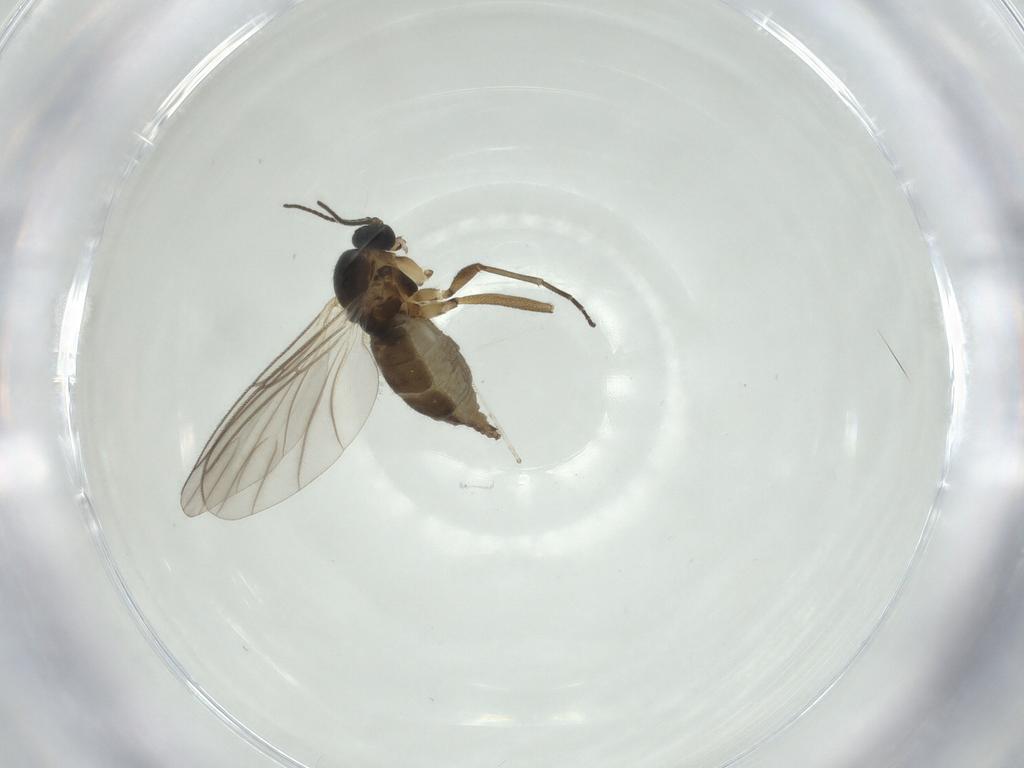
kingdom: Animalia
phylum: Arthropoda
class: Insecta
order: Diptera
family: Cecidomyiidae
